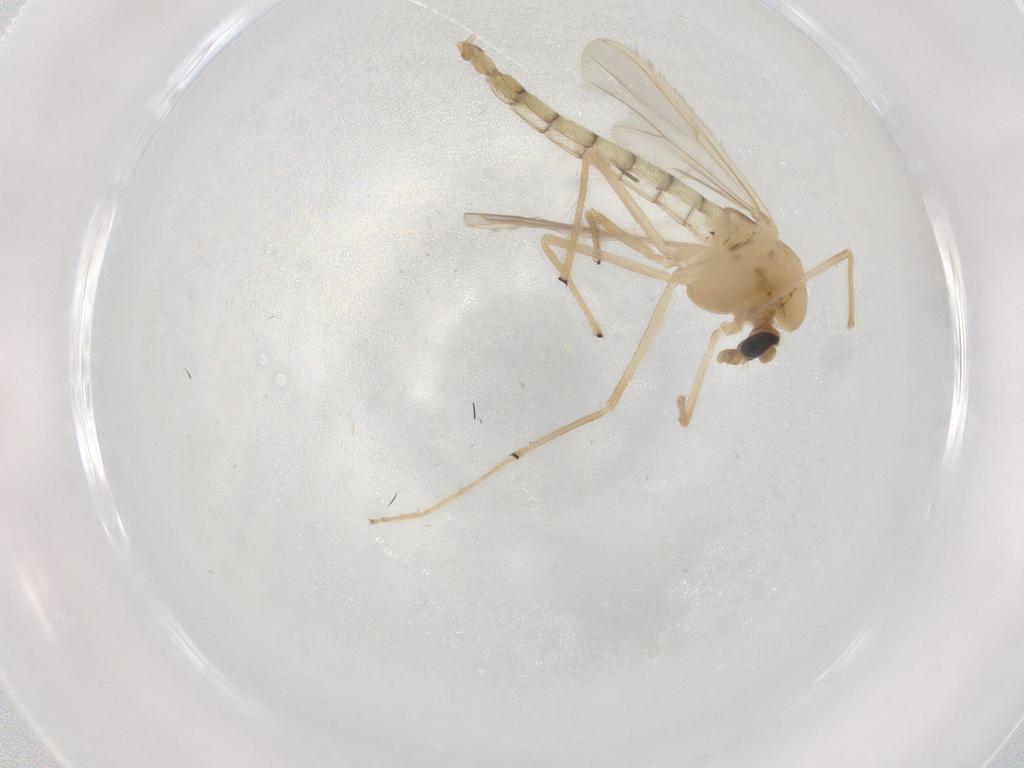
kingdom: Animalia
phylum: Arthropoda
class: Insecta
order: Diptera
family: Chironomidae
